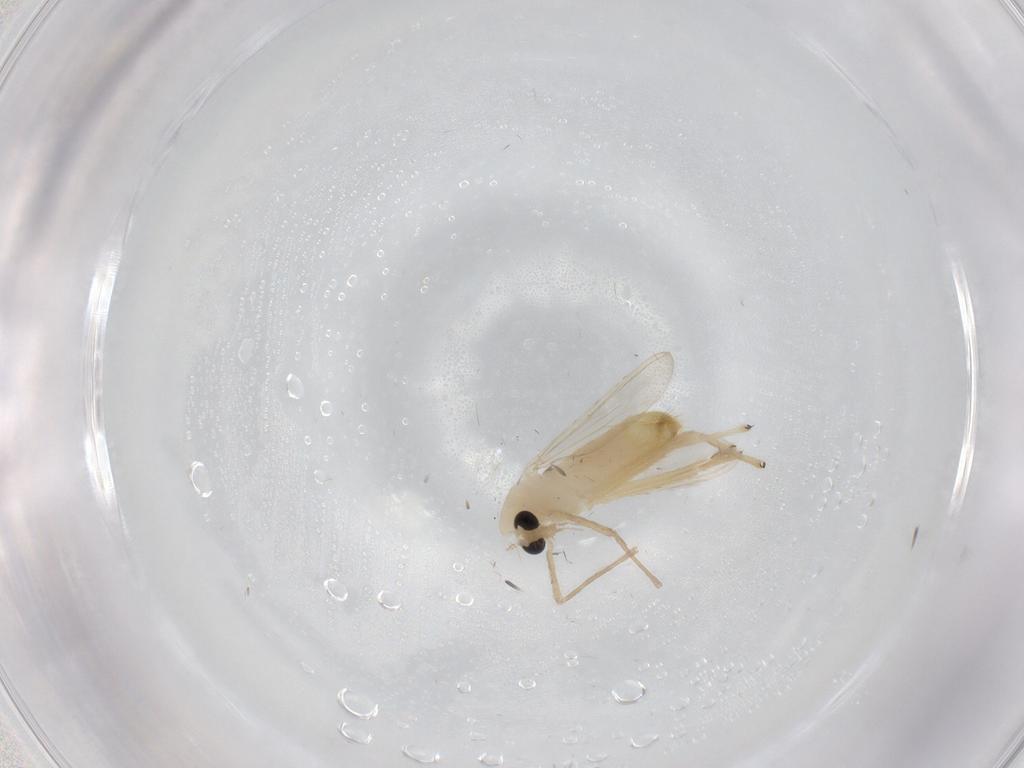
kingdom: Animalia
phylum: Arthropoda
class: Insecta
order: Diptera
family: Chironomidae
